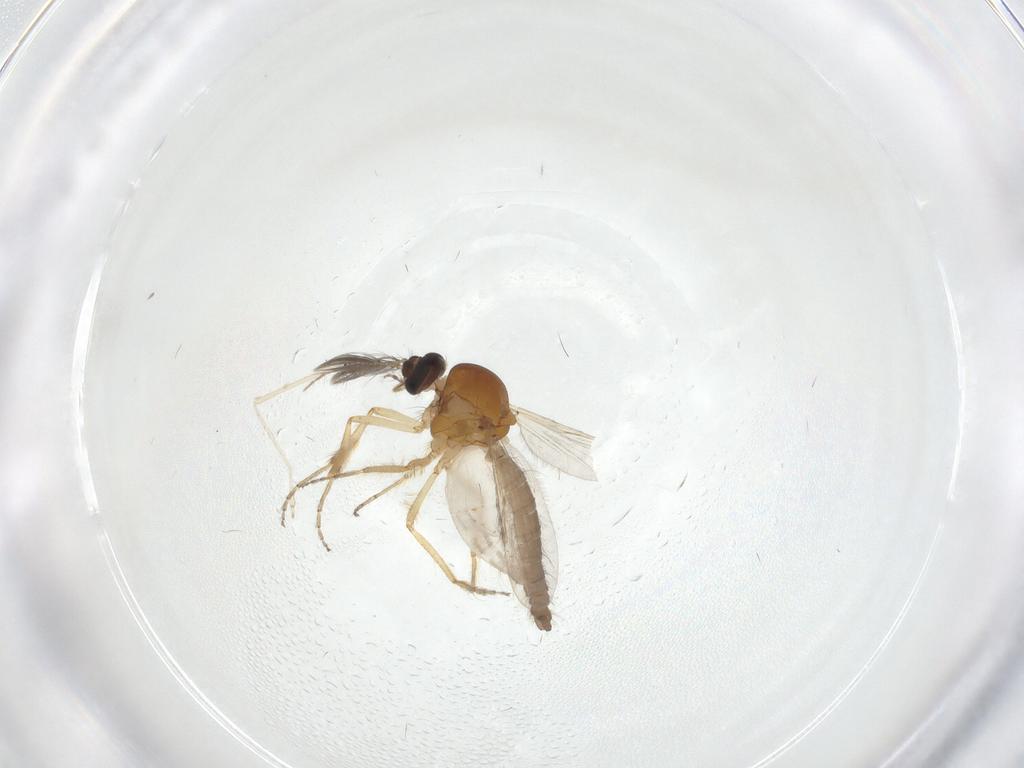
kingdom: Animalia
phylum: Arthropoda
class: Insecta
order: Diptera
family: Ceratopogonidae
